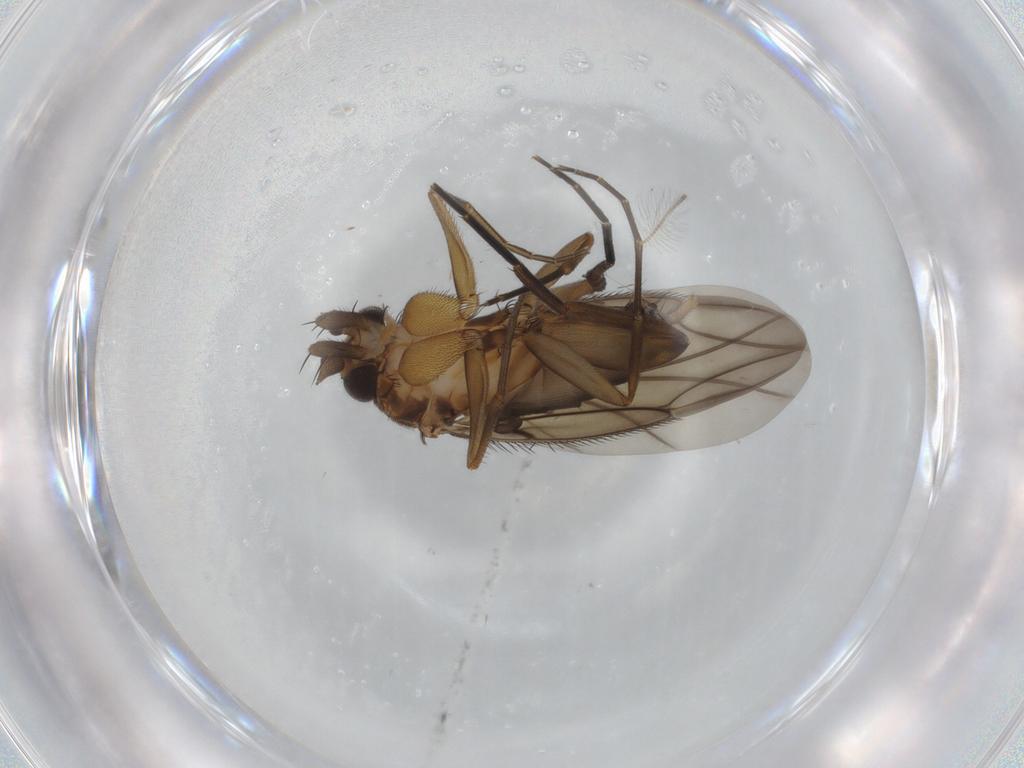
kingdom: Animalia
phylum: Arthropoda
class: Insecta
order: Diptera
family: Phoridae
